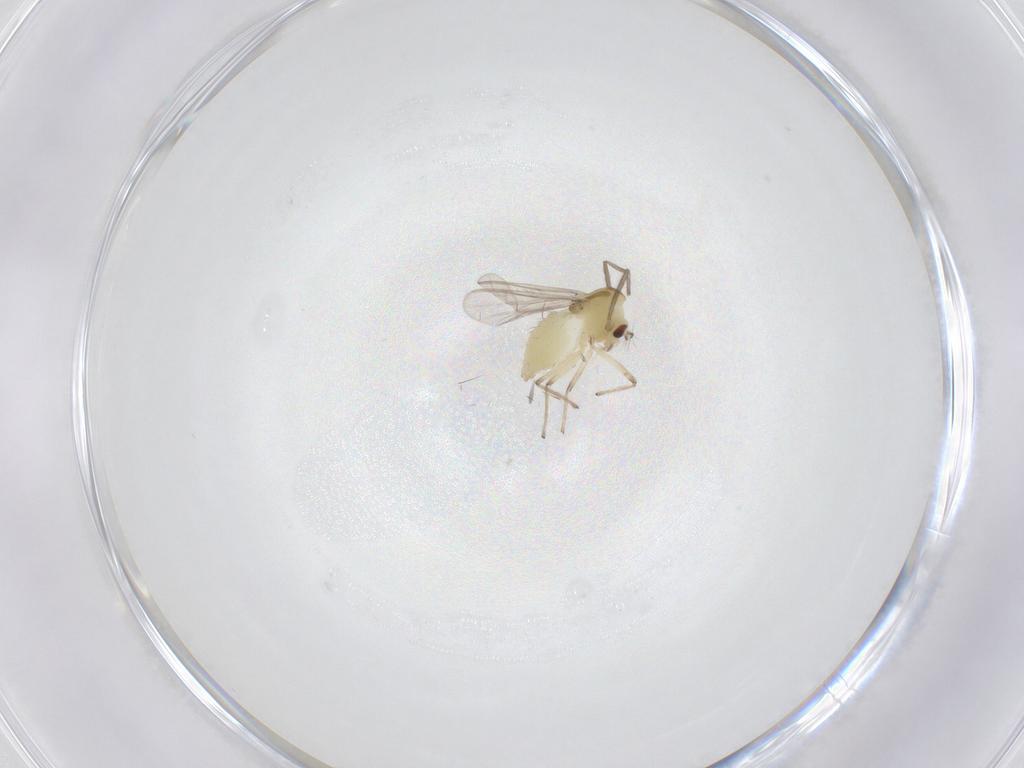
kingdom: Animalia
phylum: Arthropoda
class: Insecta
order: Diptera
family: Chironomidae
